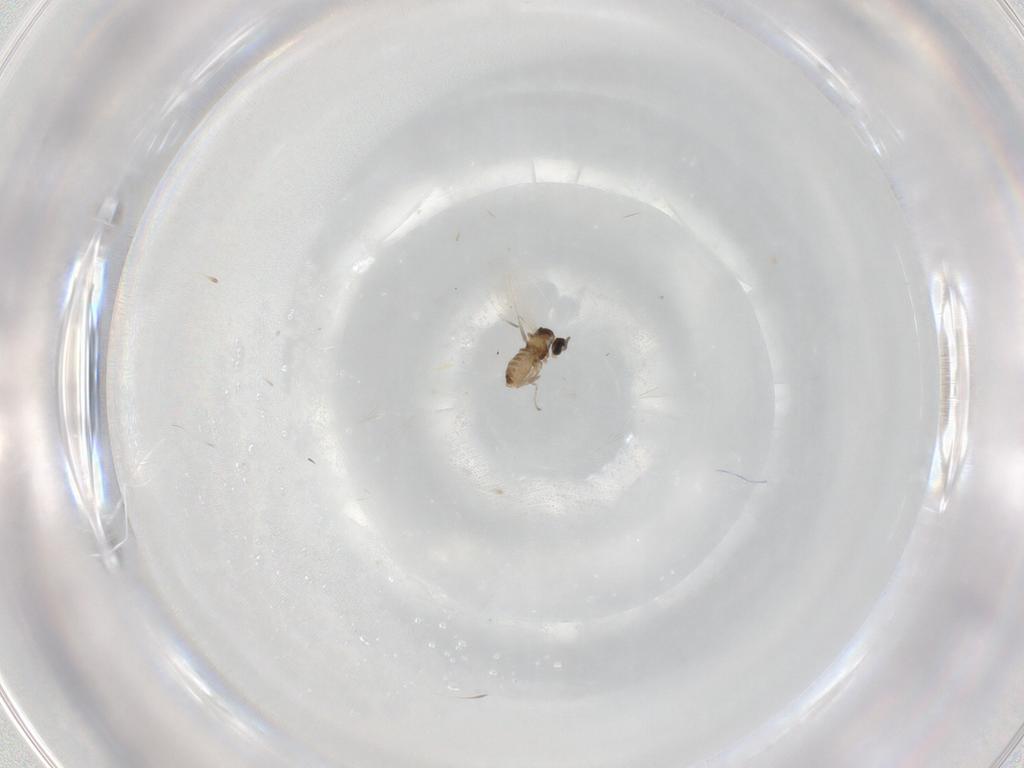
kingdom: Animalia
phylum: Arthropoda
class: Insecta
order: Diptera
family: Cecidomyiidae
